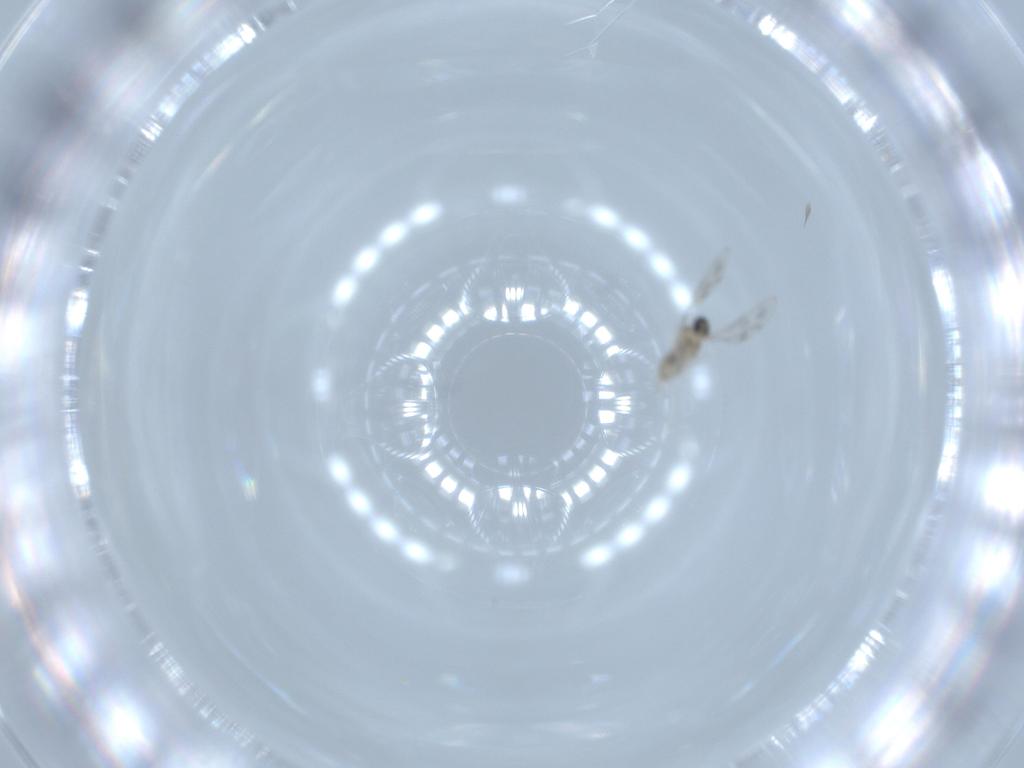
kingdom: Animalia
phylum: Arthropoda
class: Insecta
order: Diptera
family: Cecidomyiidae
